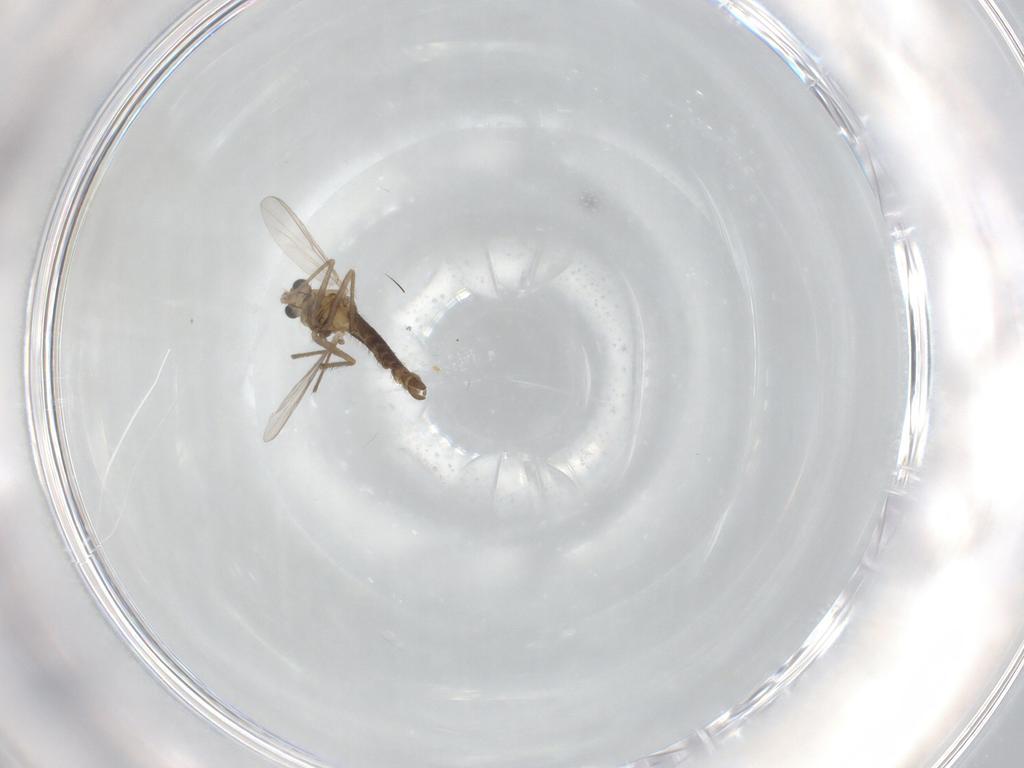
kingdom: Animalia
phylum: Arthropoda
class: Insecta
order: Diptera
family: Chironomidae
